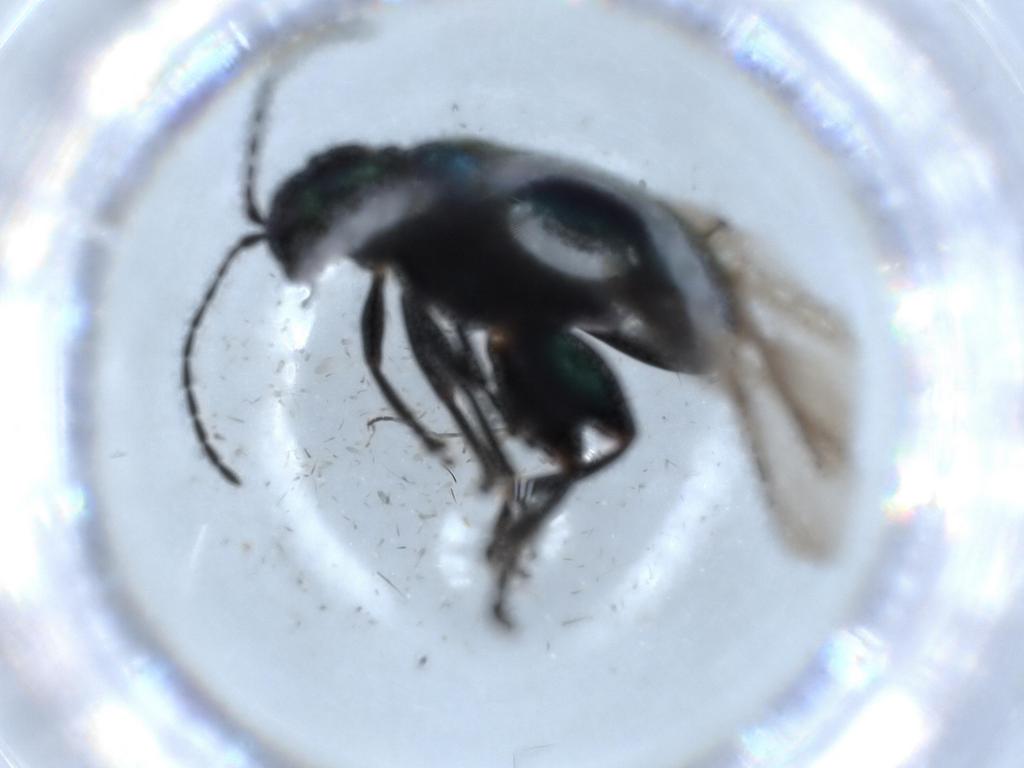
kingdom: Animalia
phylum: Arthropoda
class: Insecta
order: Coleoptera
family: Chrysomelidae
